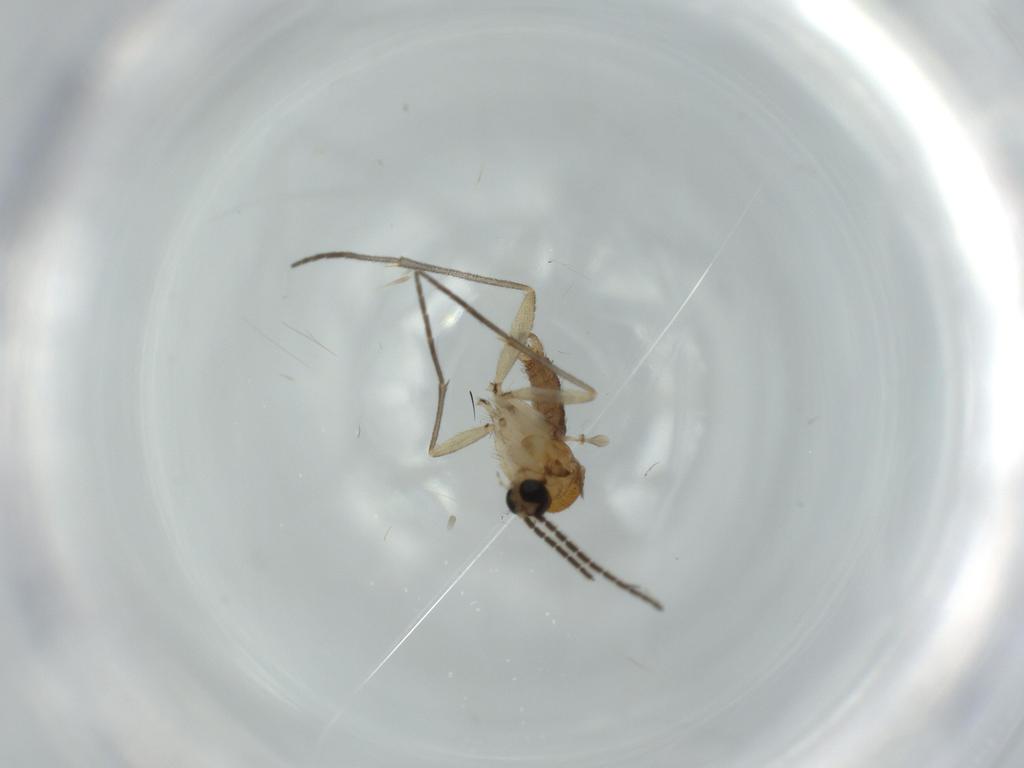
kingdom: Animalia
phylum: Arthropoda
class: Insecta
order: Diptera
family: Sciaridae
